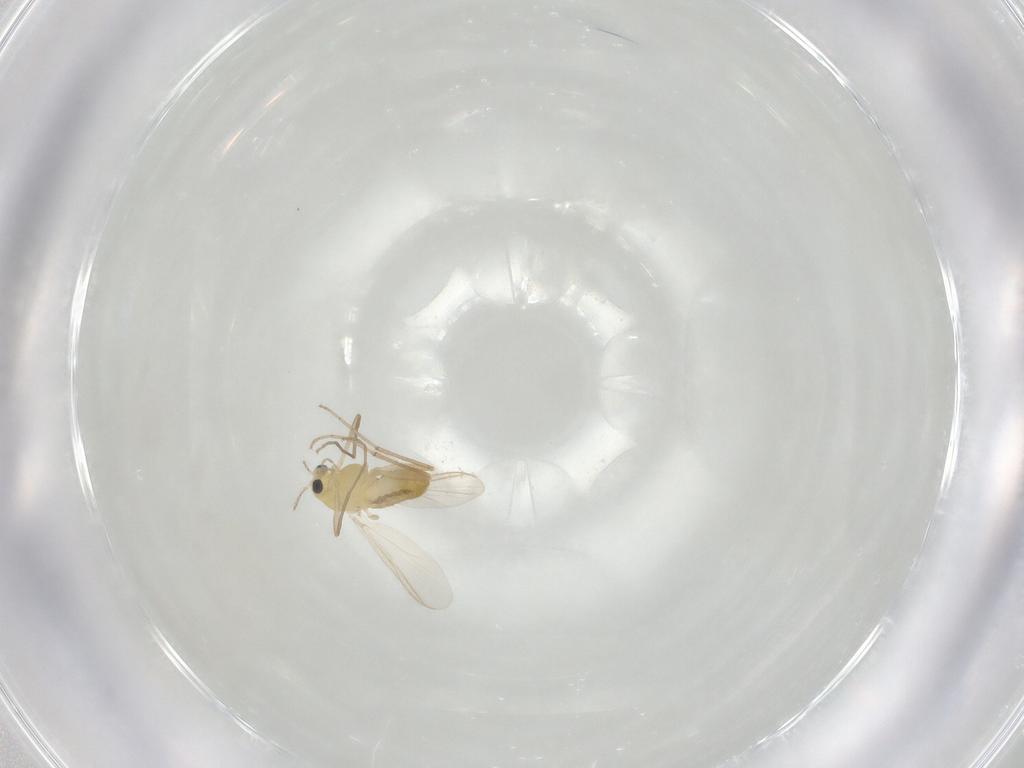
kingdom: Animalia
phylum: Arthropoda
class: Insecta
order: Diptera
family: Chironomidae
